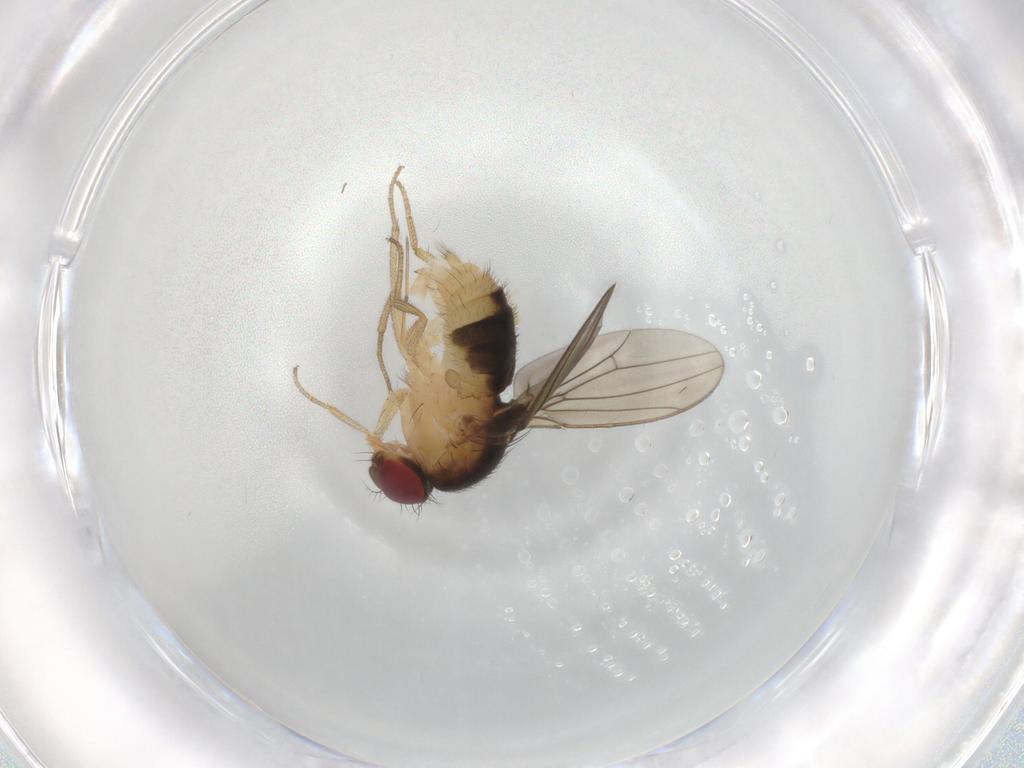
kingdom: Animalia
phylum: Arthropoda
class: Insecta
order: Diptera
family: Drosophilidae
